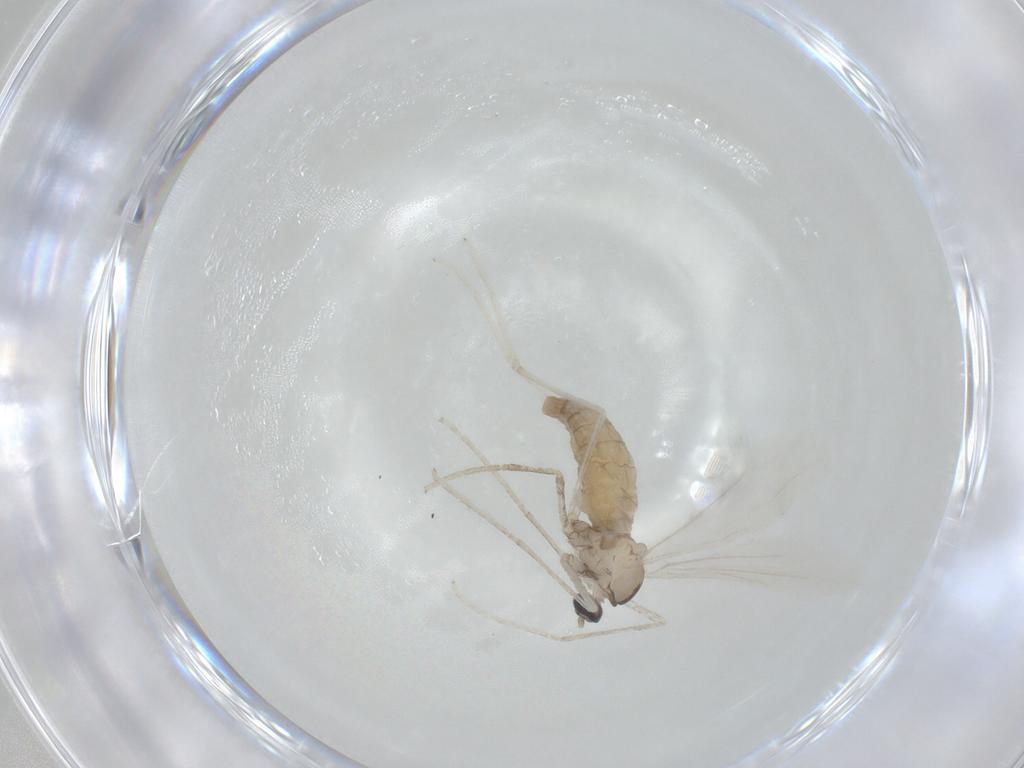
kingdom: Animalia
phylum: Arthropoda
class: Insecta
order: Diptera
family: Cecidomyiidae
